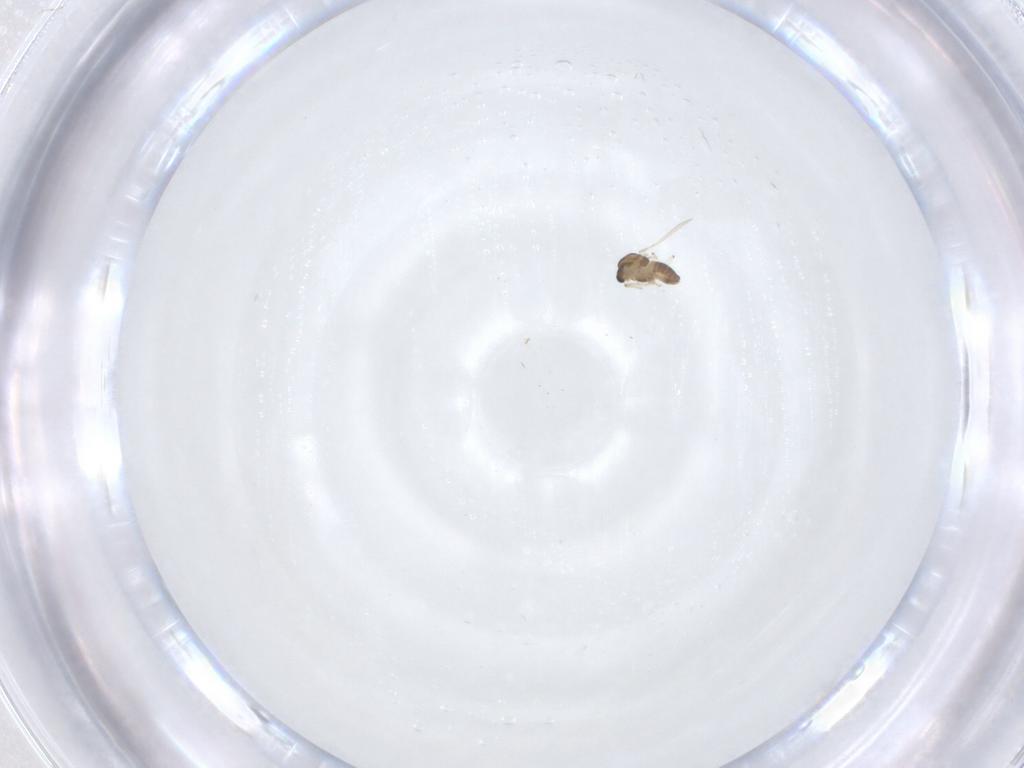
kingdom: Animalia
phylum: Arthropoda
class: Insecta
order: Diptera
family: Chironomidae
